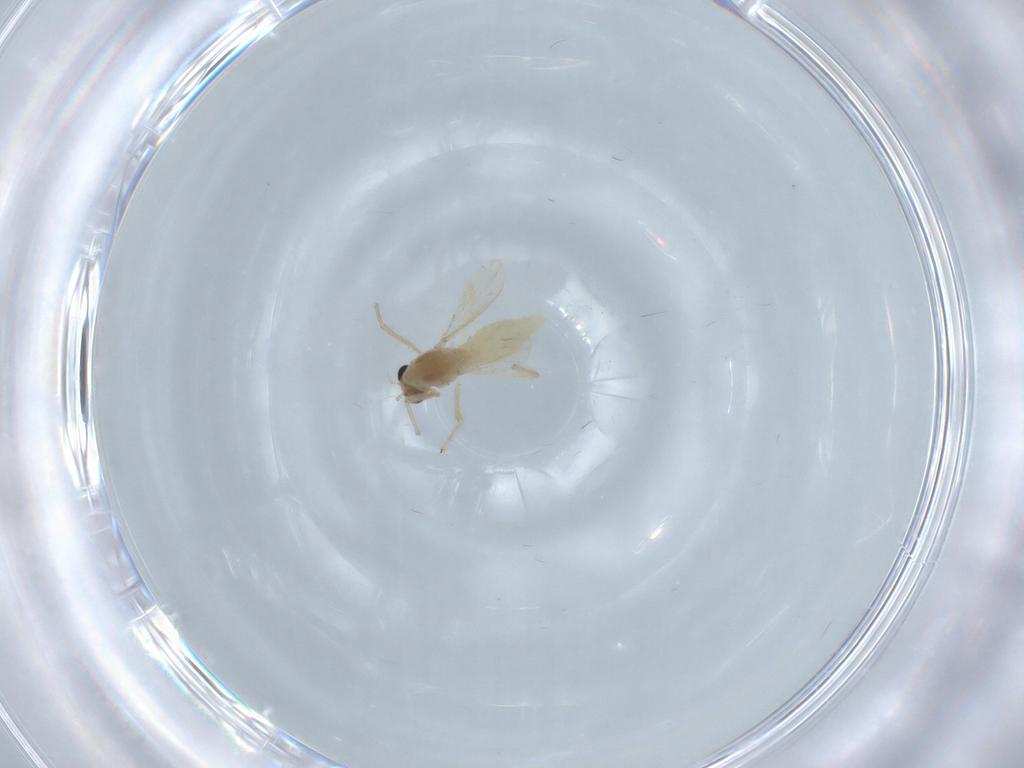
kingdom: Animalia
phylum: Arthropoda
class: Insecta
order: Diptera
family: Chironomidae
